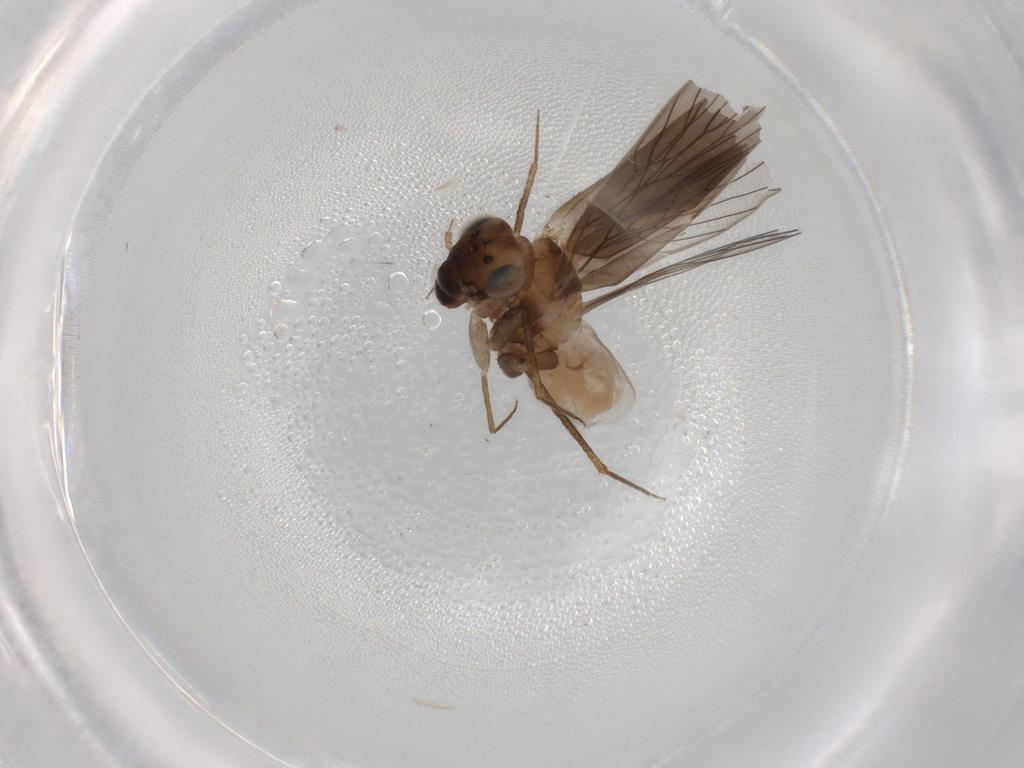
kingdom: Animalia
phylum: Arthropoda
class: Insecta
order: Psocodea
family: Lepidopsocidae
